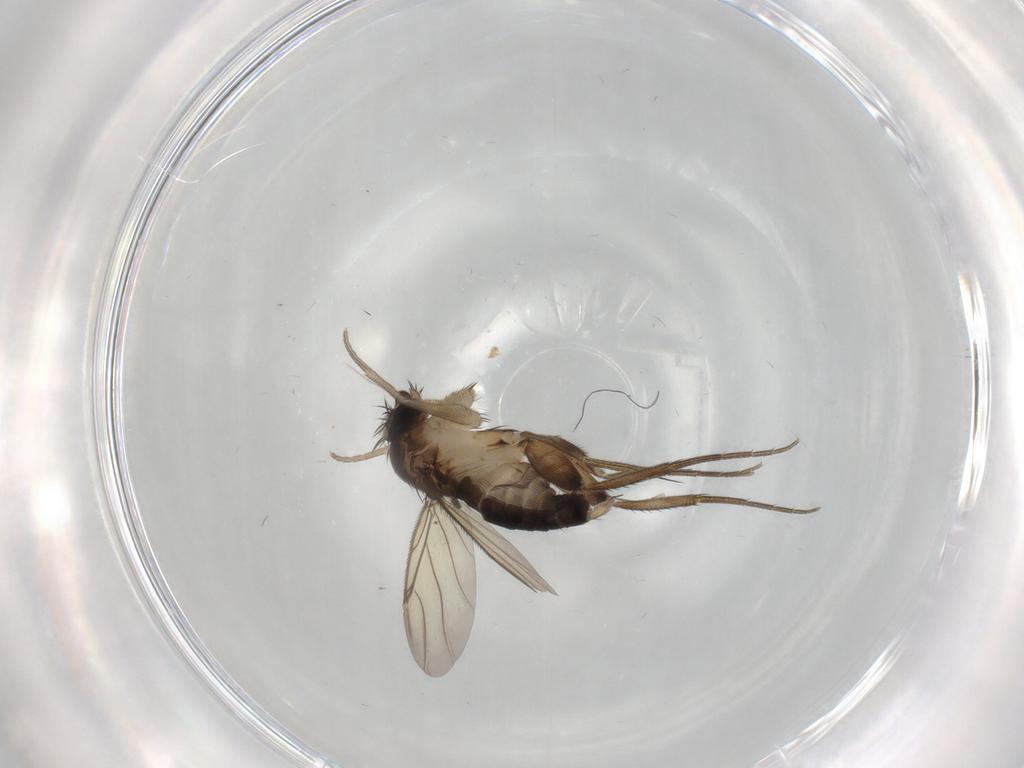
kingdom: Animalia
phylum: Arthropoda
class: Insecta
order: Diptera
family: Phoridae
